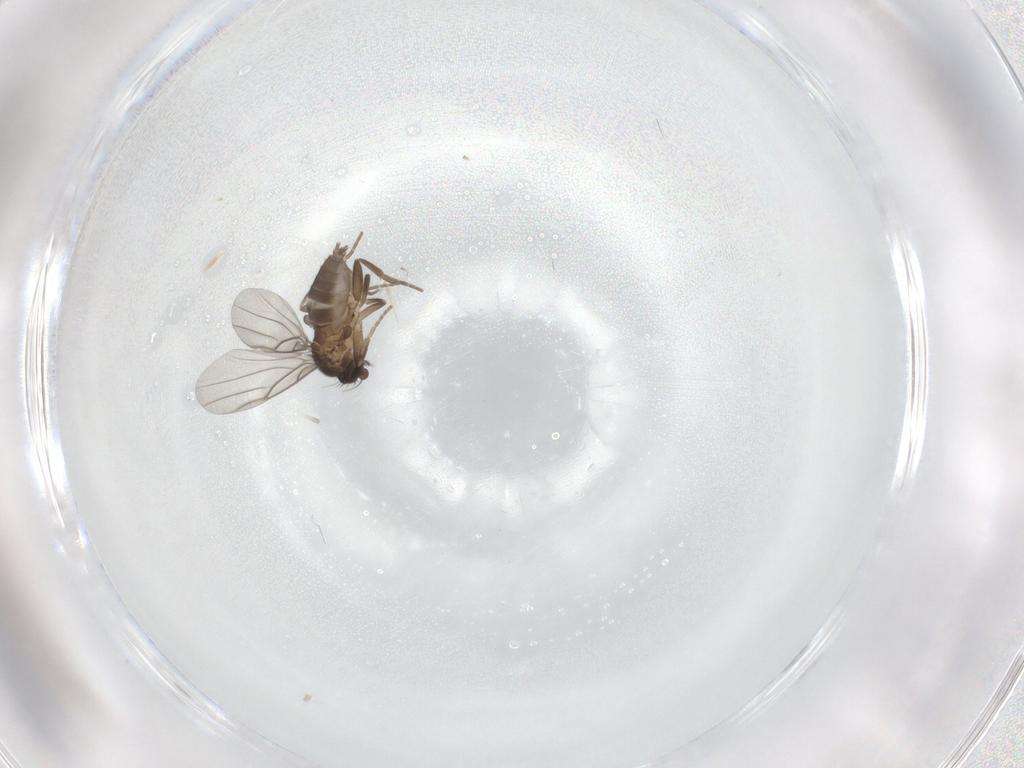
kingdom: Animalia
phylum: Arthropoda
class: Insecta
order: Diptera
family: Phoridae
